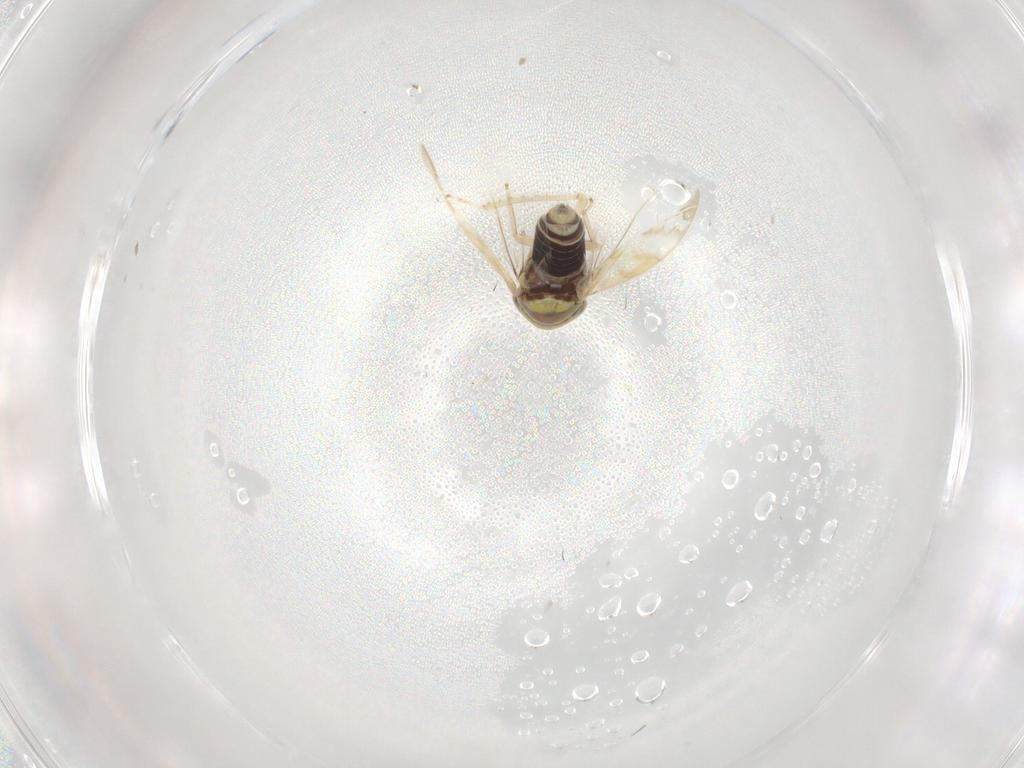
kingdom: Animalia
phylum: Arthropoda
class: Insecta
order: Hemiptera
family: Cicadellidae
